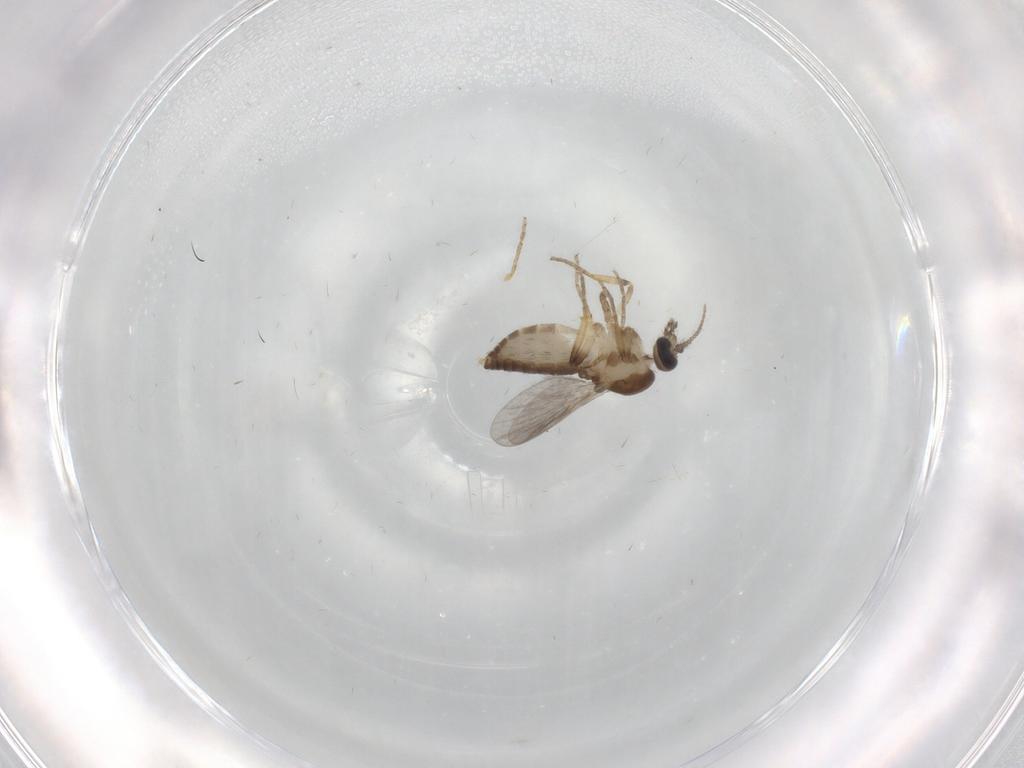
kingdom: Animalia
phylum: Arthropoda
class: Insecta
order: Diptera
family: Ceratopogonidae
